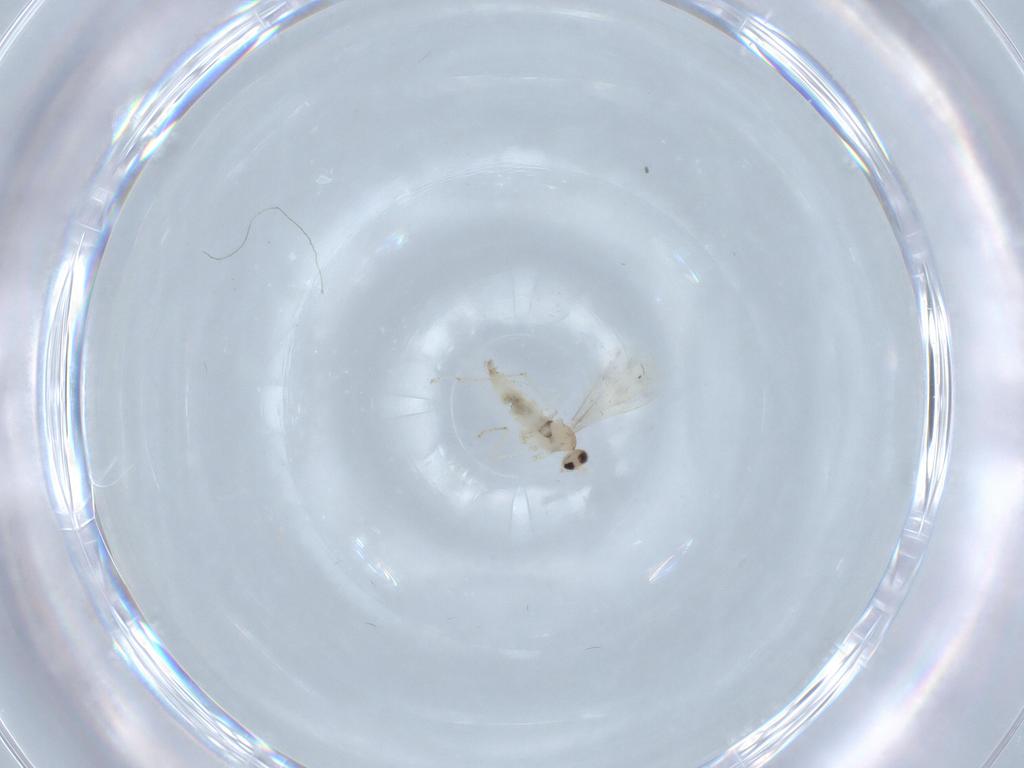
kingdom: Animalia
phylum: Arthropoda
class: Insecta
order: Diptera
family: Cecidomyiidae
